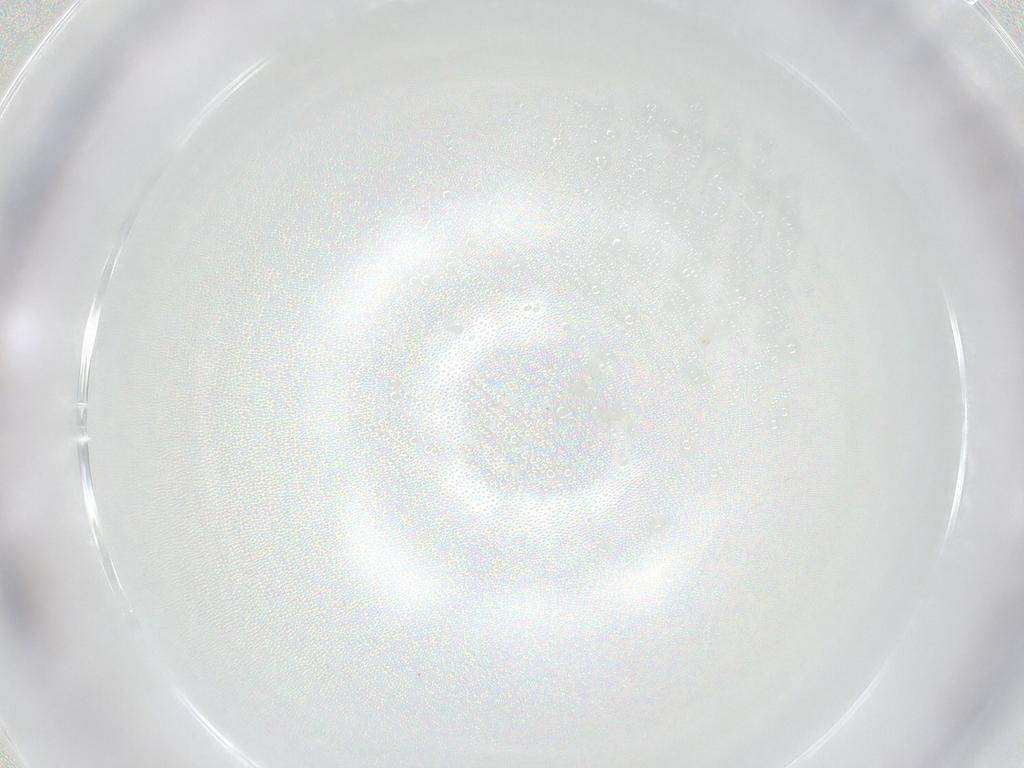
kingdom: Animalia
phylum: Arthropoda
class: Insecta
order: Diptera
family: Chironomidae
